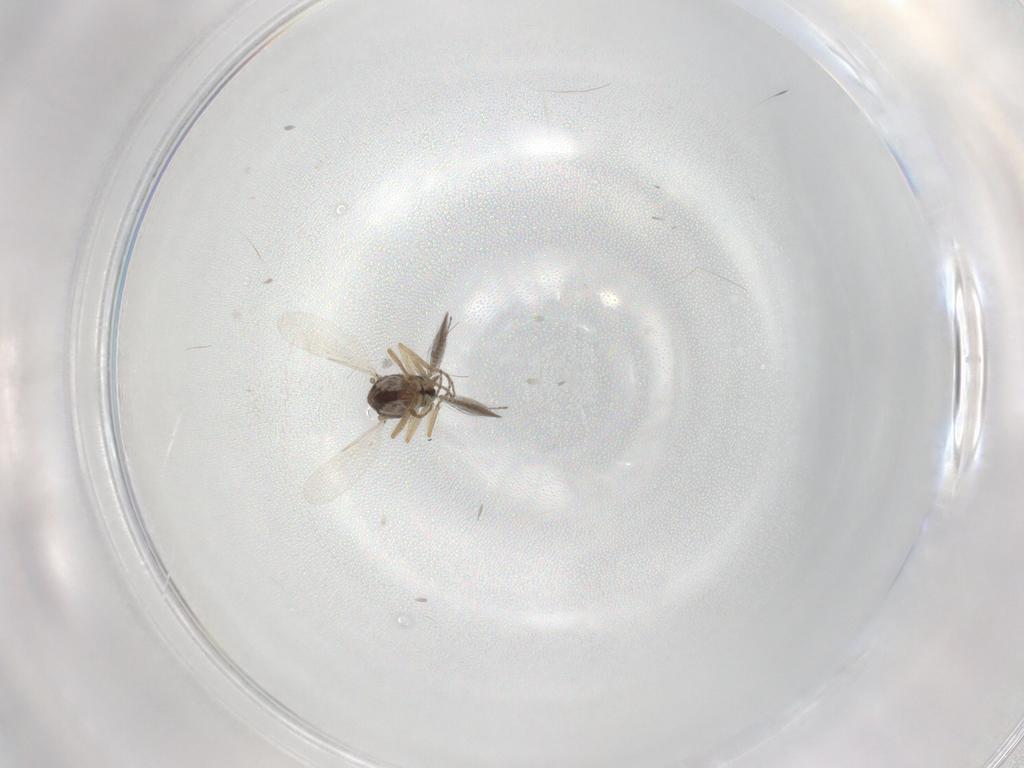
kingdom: Animalia
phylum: Arthropoda
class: Insecta
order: Diptera
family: Ceratopogonidae
